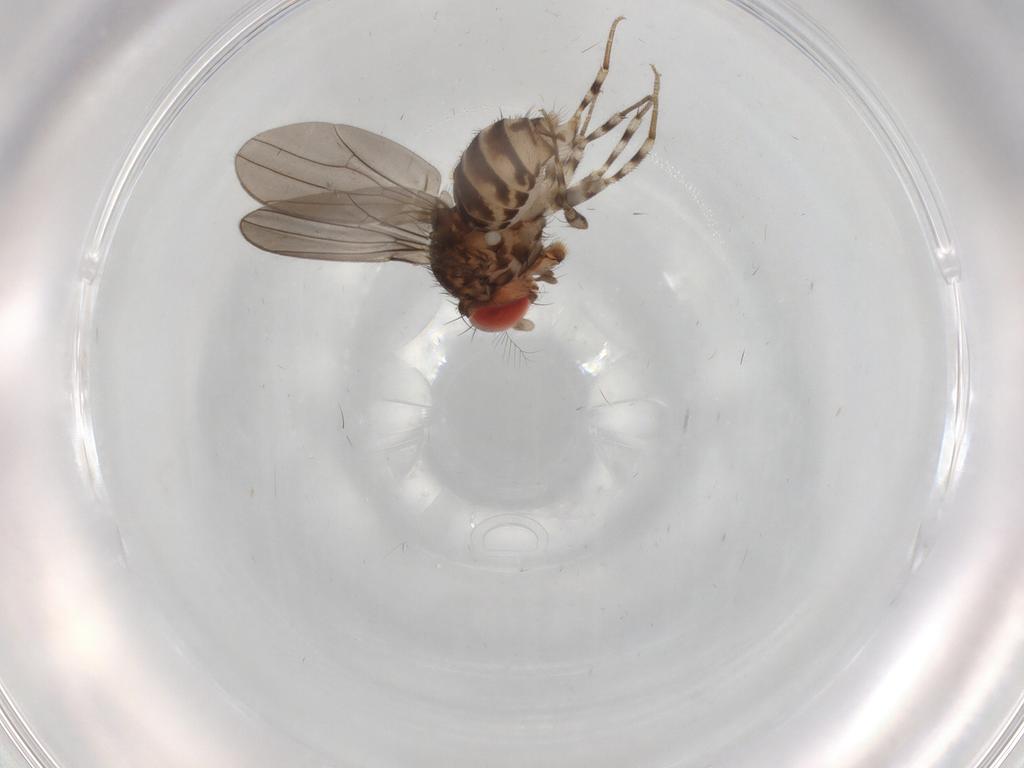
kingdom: Animalia
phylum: Arthropoda
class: Insecta
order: Diptera
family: Drosophilidae
